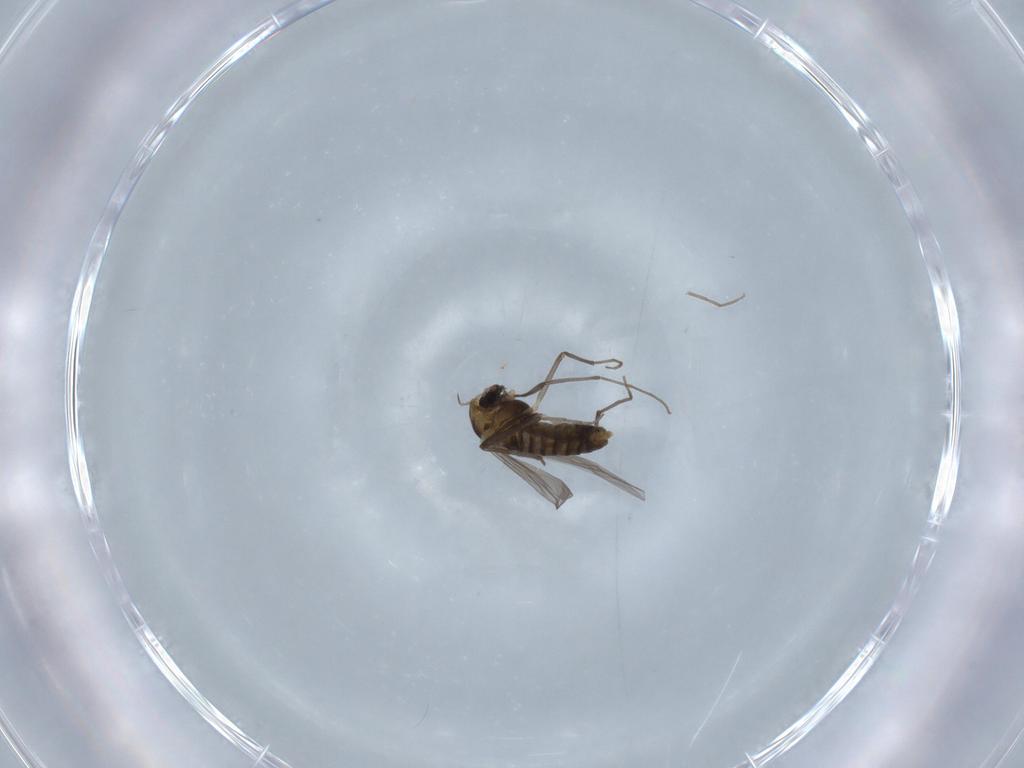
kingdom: Animalia
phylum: Arthropoda
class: Insecta
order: Diptera
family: Chironomidae
